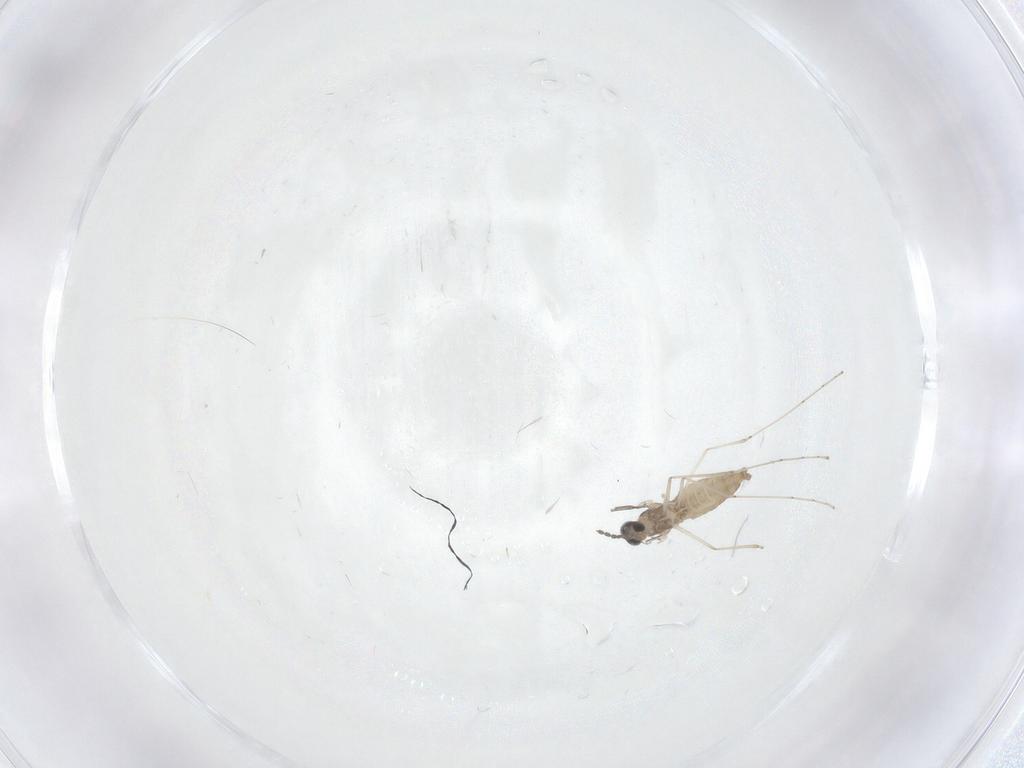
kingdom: Animalia
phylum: Arthropoda
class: Insecta
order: Diptera
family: Cecidomyiidae
